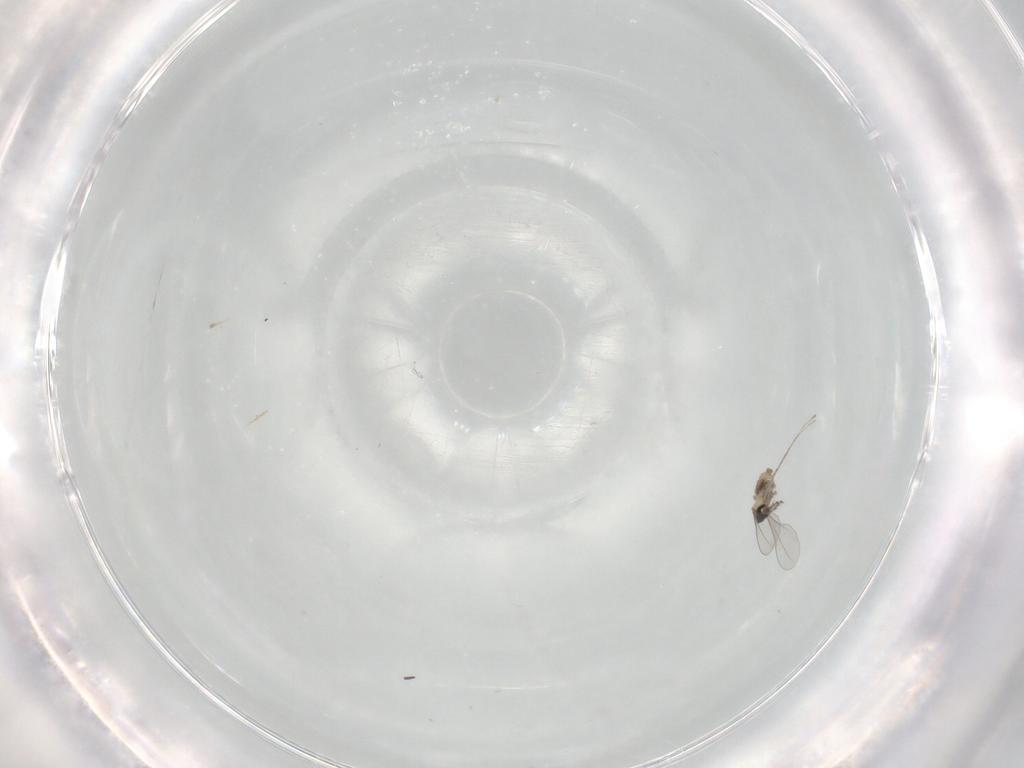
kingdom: Animalia
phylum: Arthropoda
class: Insecta
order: Diptera
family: Cecidomyiidae
